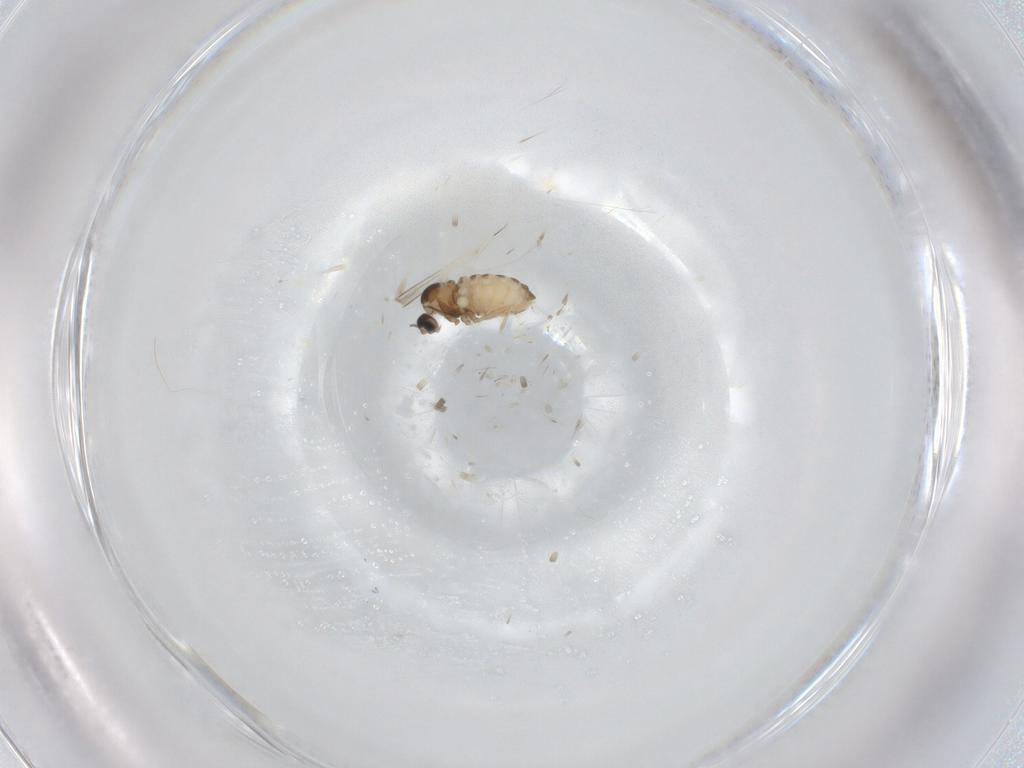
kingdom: Animalia
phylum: Arthropoda
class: Insecta
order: Diptera
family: Cecidomyiidae
